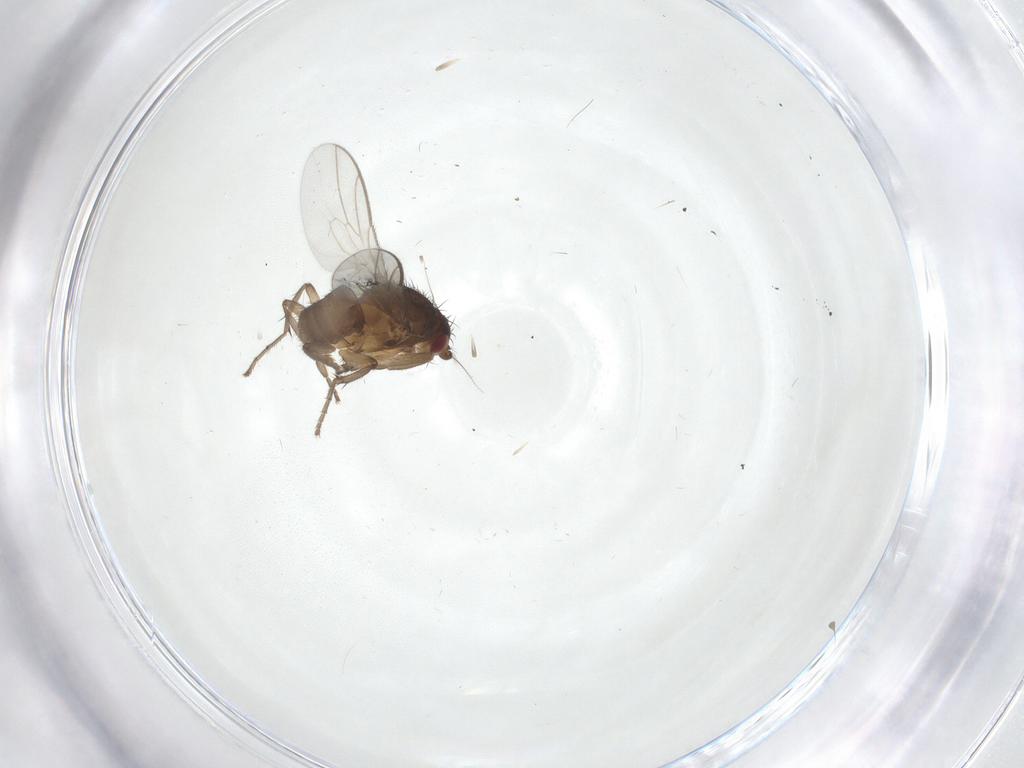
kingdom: Animalia
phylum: Arthropoda
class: Insecta
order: Diptera
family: Sphaeroceridae
